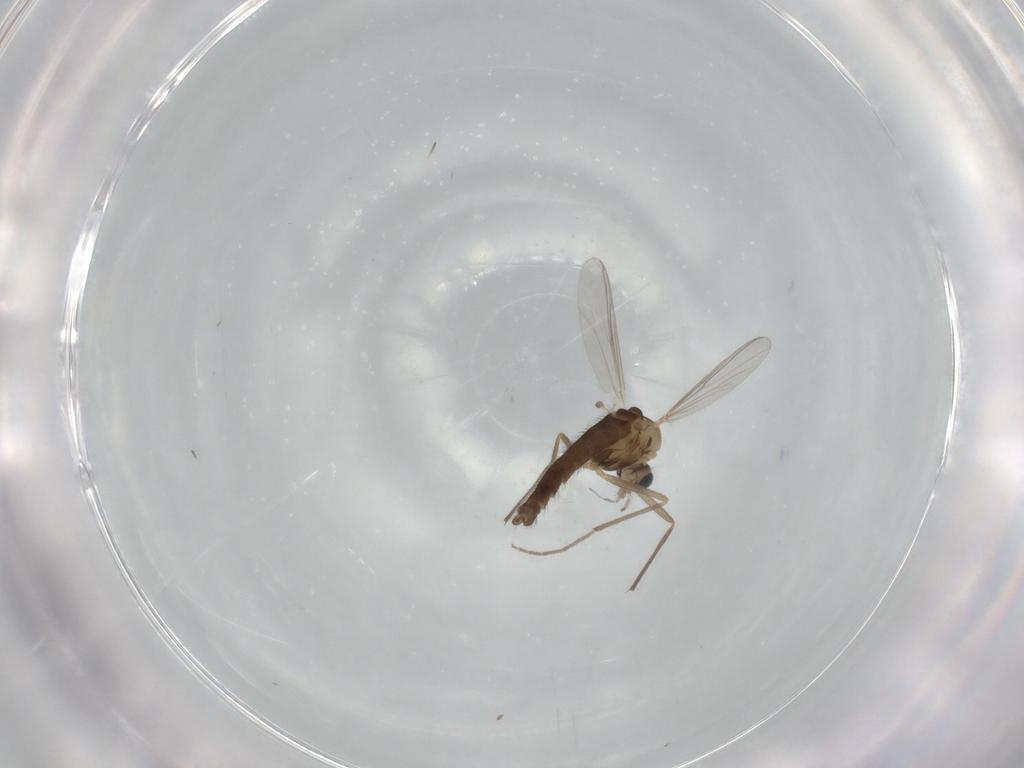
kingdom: Animalia
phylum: Arthropoda
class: Insecta
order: Diptera
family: Chironomidae
